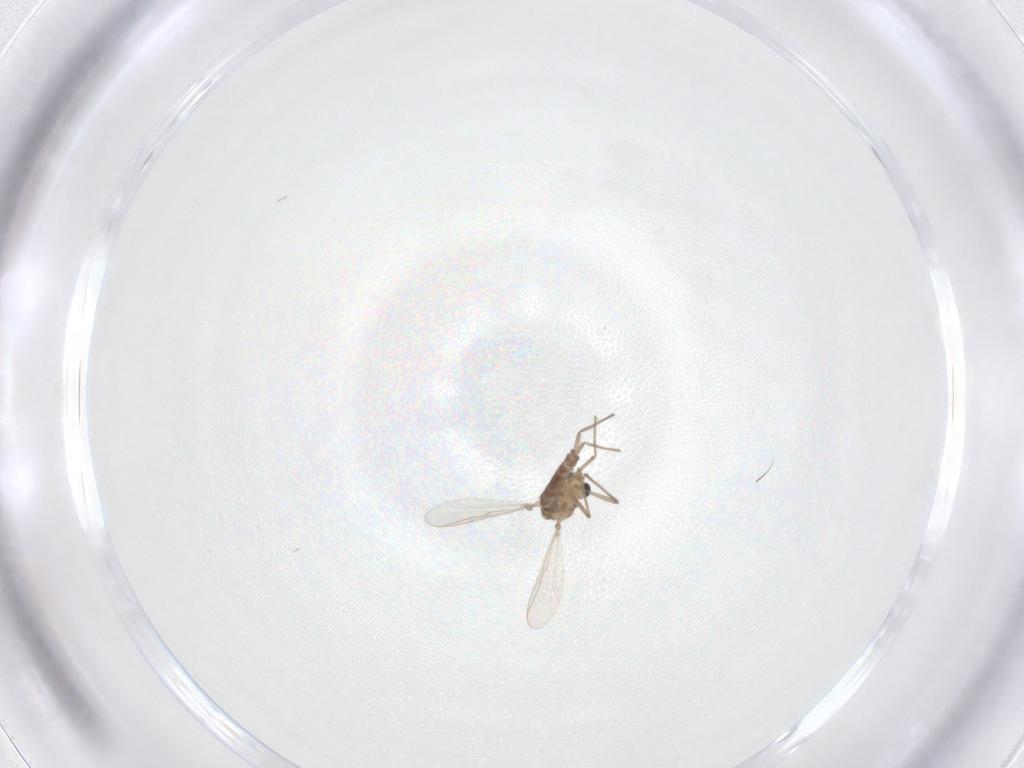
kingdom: Animalia
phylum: Arthropoda
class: Insecta
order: Diptera
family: Chironomidae
